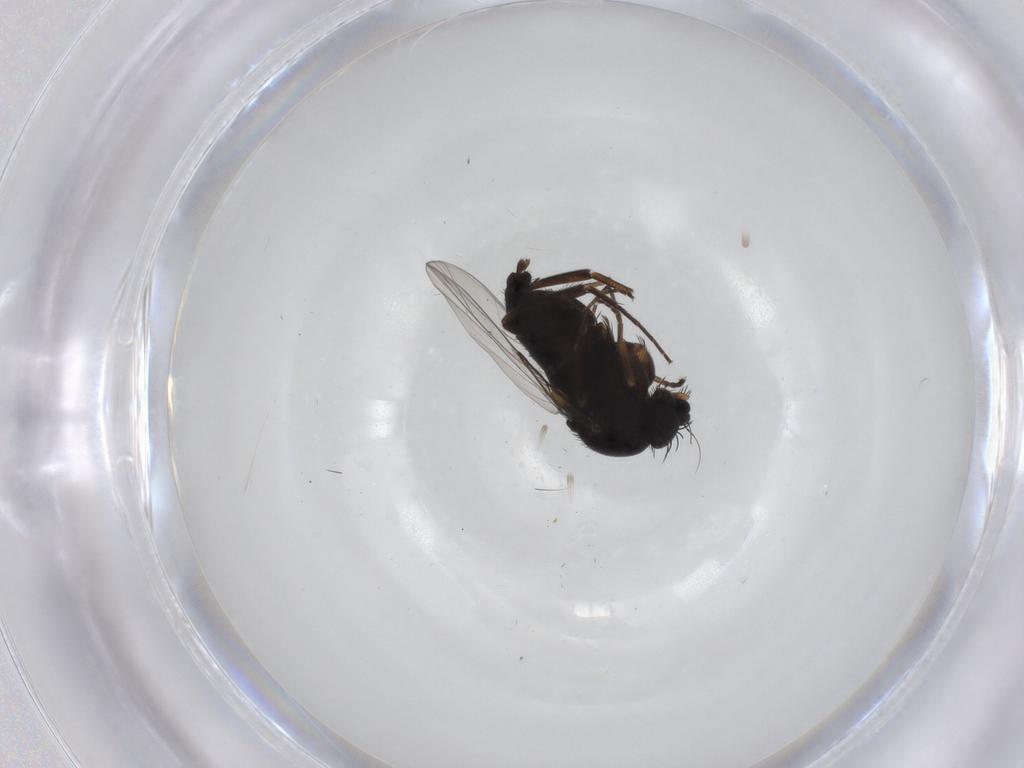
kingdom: Animalia
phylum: Arthropoda
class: Insecta
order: Diptera
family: Phoridae
